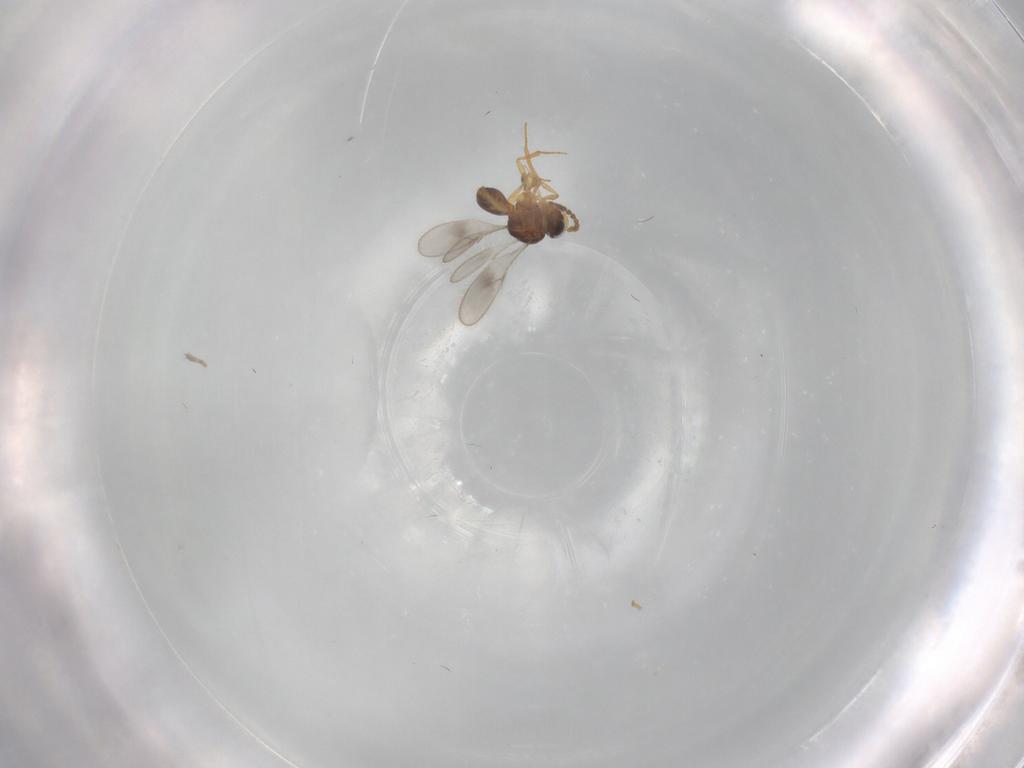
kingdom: Animalia
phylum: Arthropoda
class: Insecta
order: Hymenoptera
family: Scelionidae
